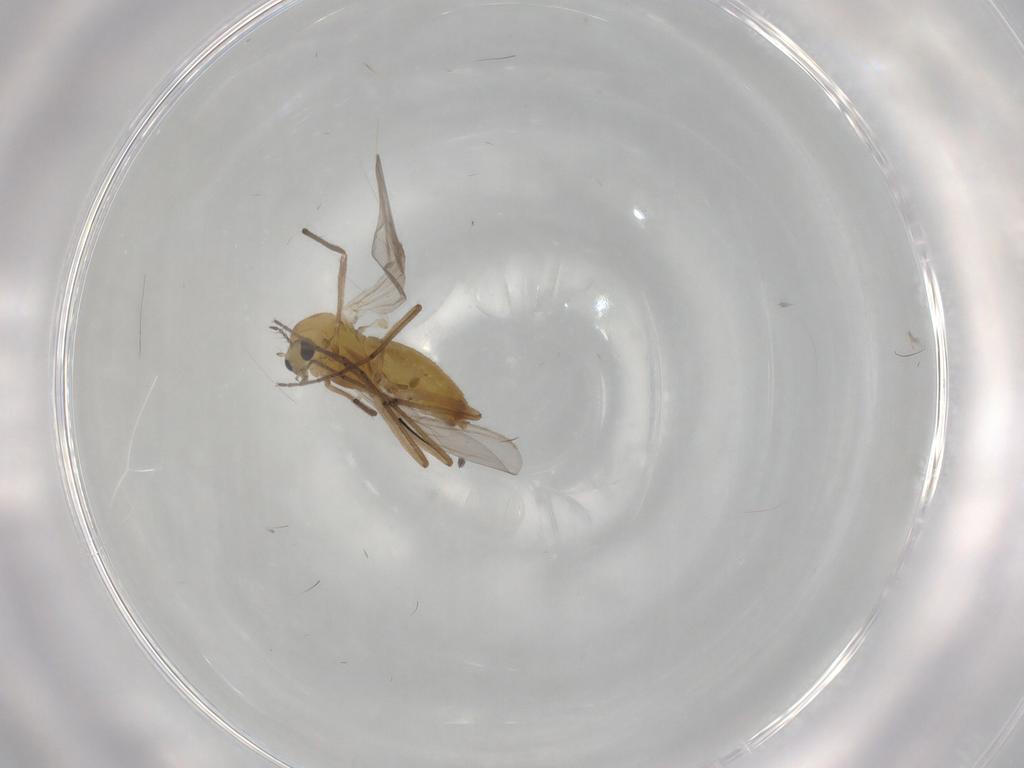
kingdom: Animalia
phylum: Arthropoda
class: Insecta
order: Diptera
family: Chironomidae
